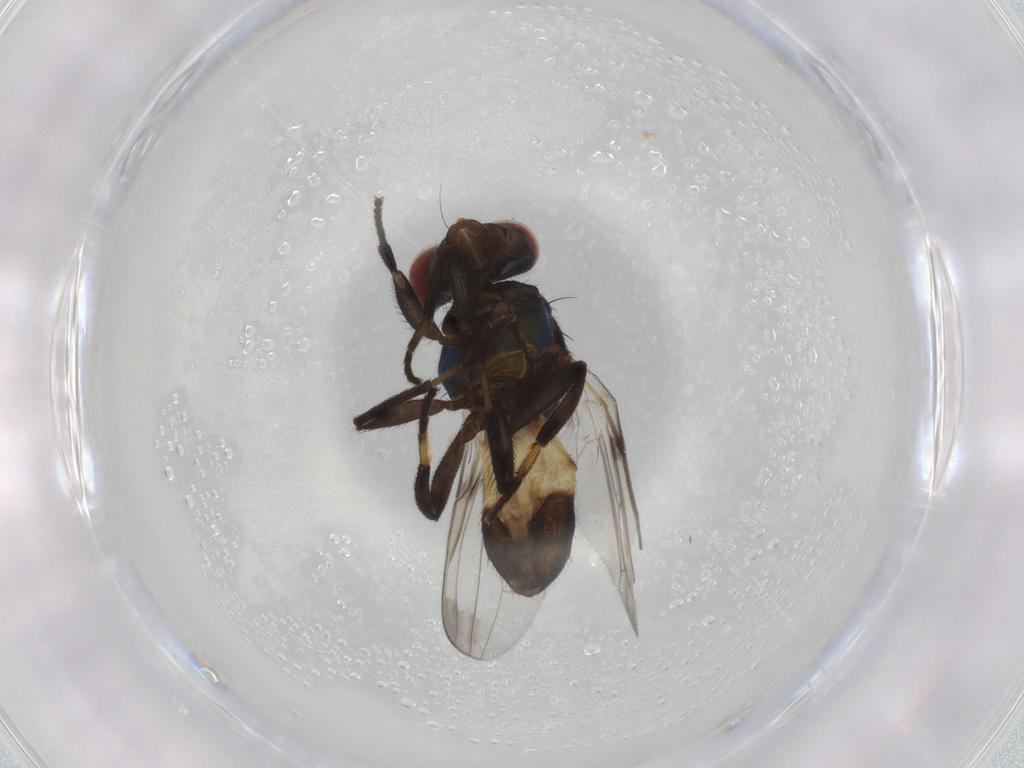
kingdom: Animalia
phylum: Arthropoda
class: Insecta
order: Diptera
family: Ulidiidae
